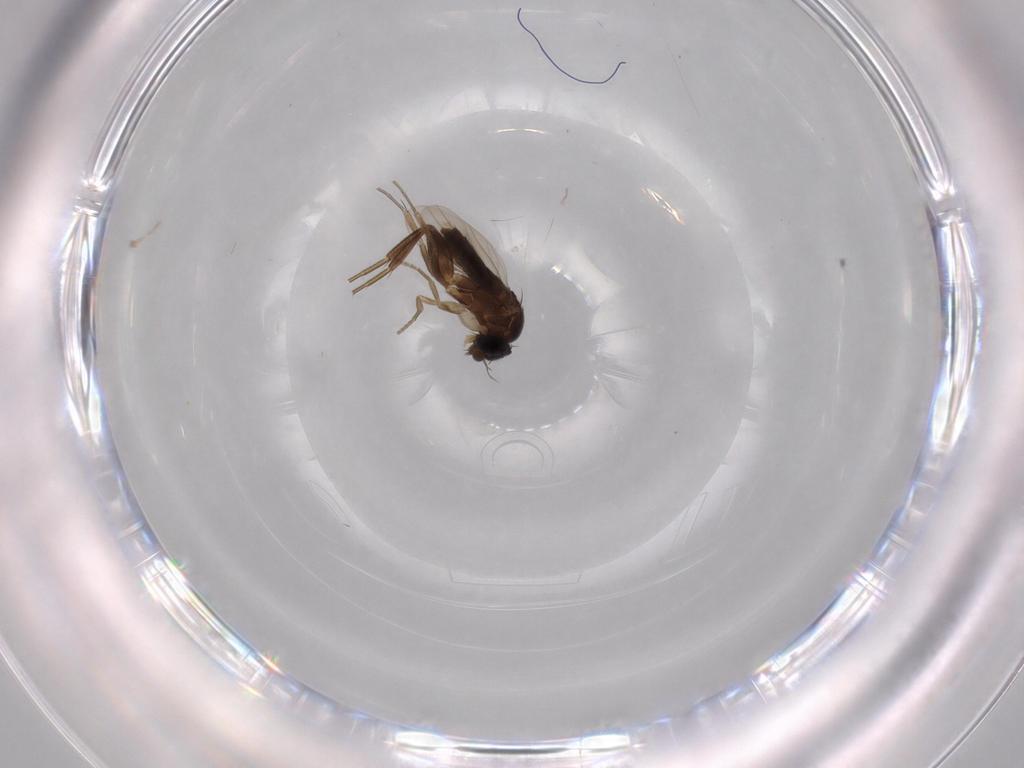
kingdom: Animalia
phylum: Arthropoda
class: Insecta
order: Diptera
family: Phoridae
